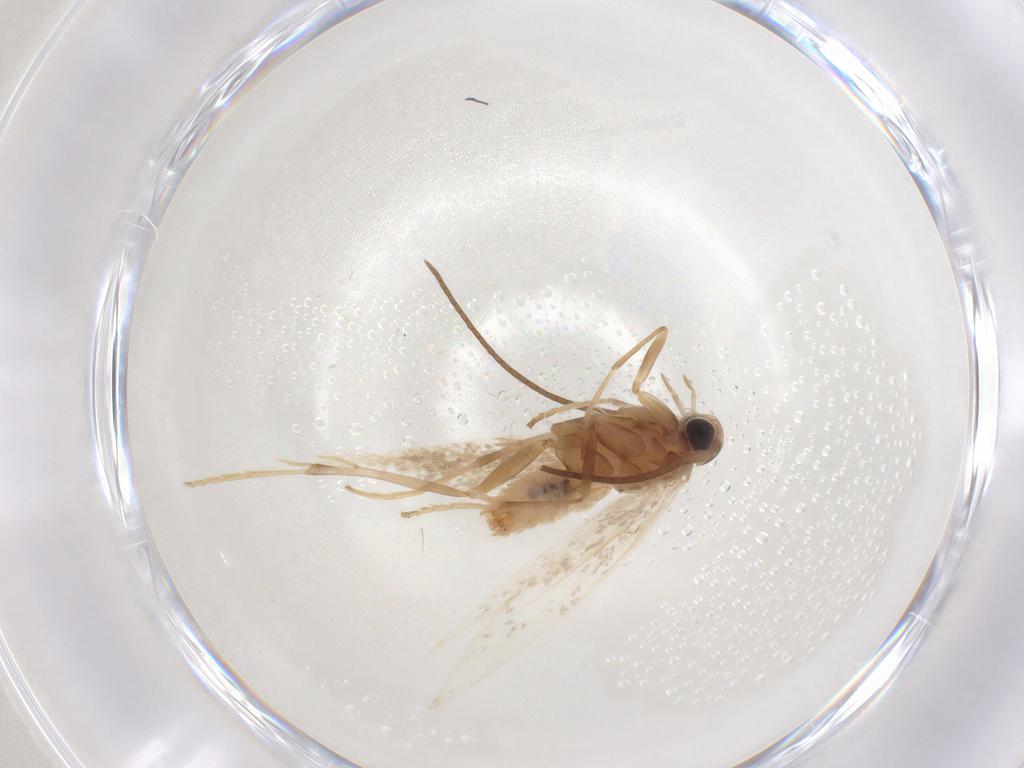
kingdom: Animalia
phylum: Arthropoda
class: Insecta
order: Lepidoptera
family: Coleophoridae
